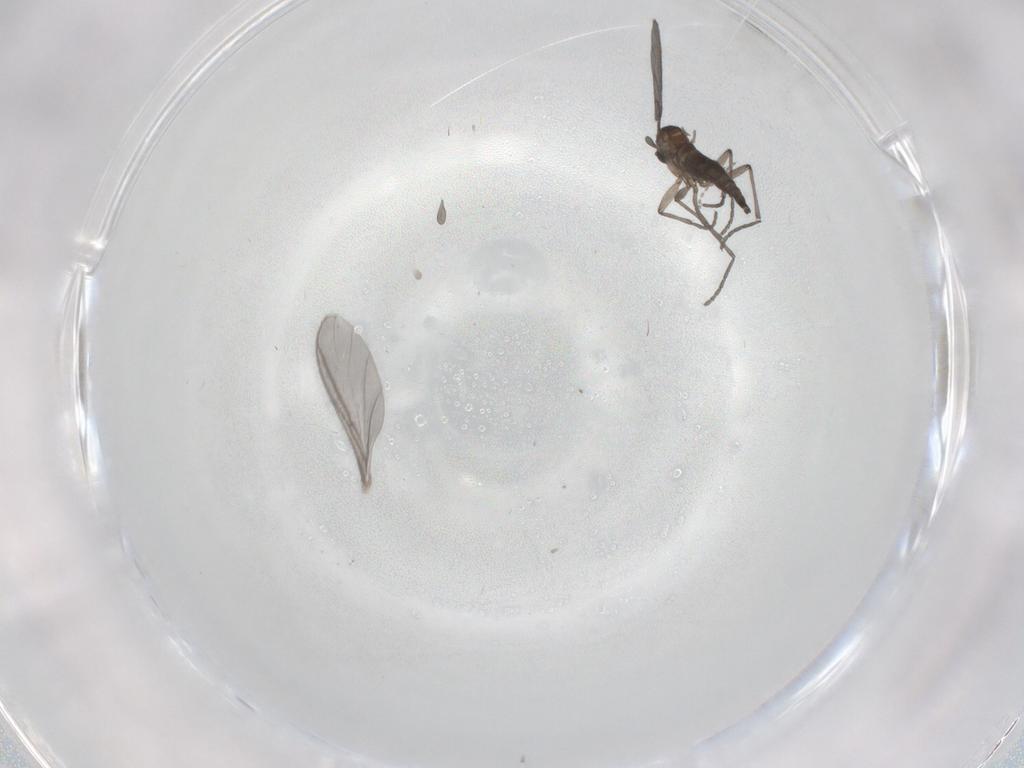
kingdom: Animalia
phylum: Arthropoda
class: Insecta
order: Diptera
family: Sciaridae
